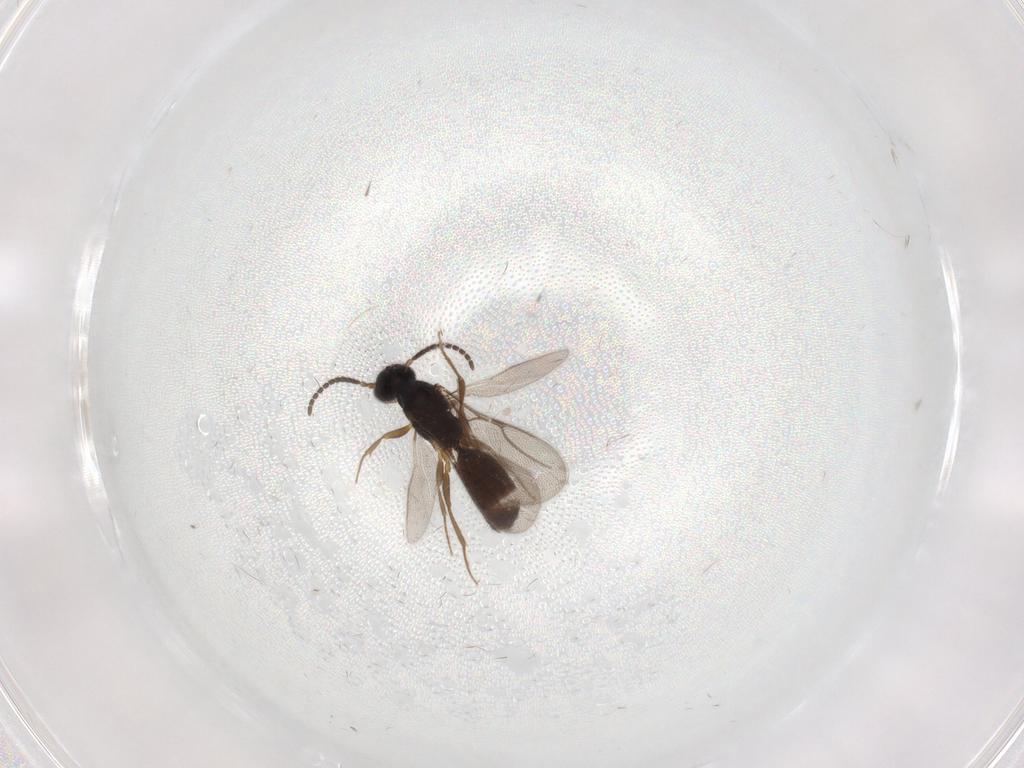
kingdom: Animalia
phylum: Arthropoda
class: Insecta
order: Hymenoptera
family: Bethylidae
